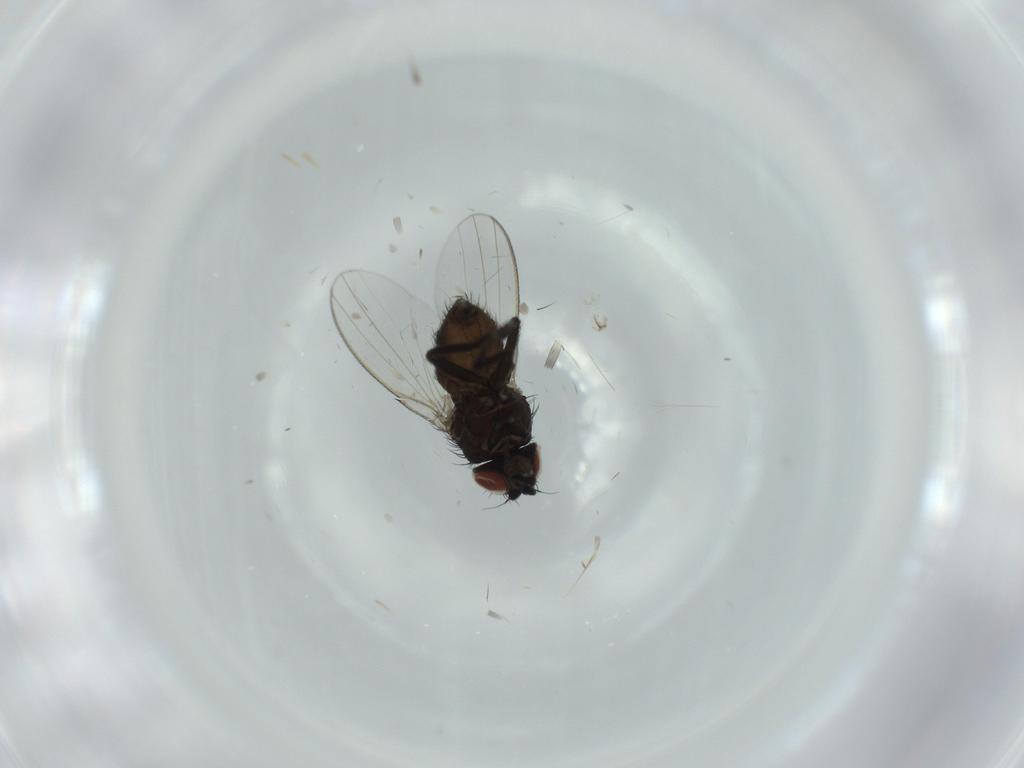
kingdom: Animalia
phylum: Arthropoda
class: Insecta
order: Diptera
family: Milichiidae
